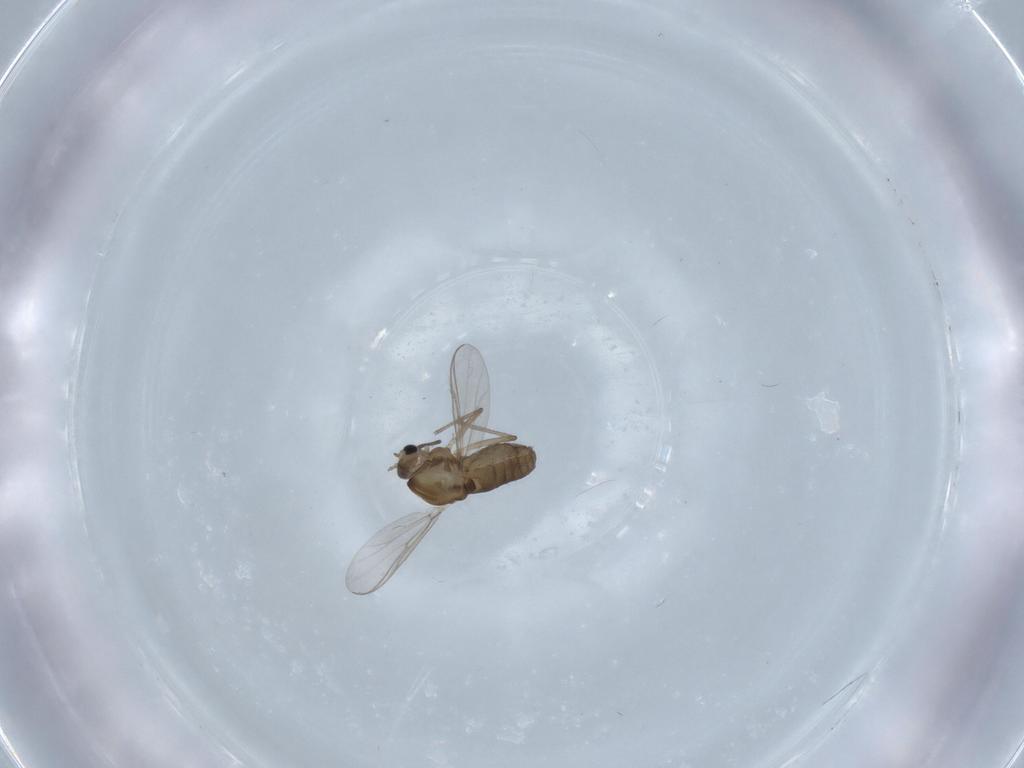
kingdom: Animalia
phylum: Arthropoda
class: Insecta
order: Diptera
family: Chironomidae
